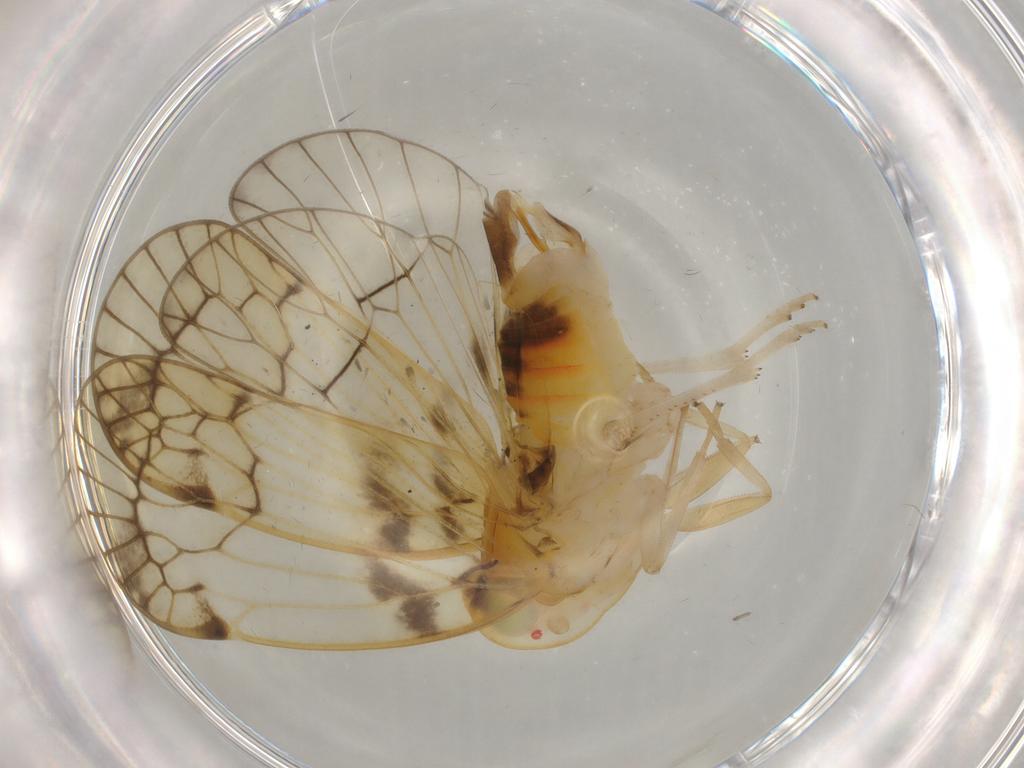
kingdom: Animalia
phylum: Arthropoda
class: Insecta
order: Hemiptera
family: Cixiidae
